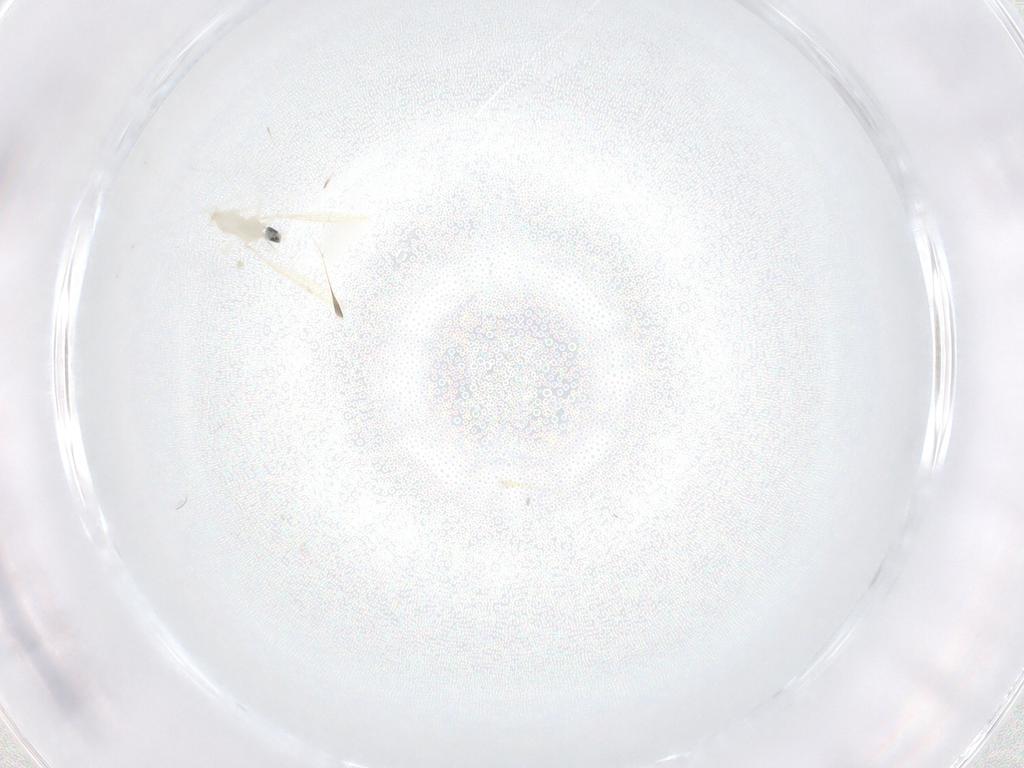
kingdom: Animalia
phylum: Arthropoda
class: Insecta
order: Diptera
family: Cecidomyiidae
